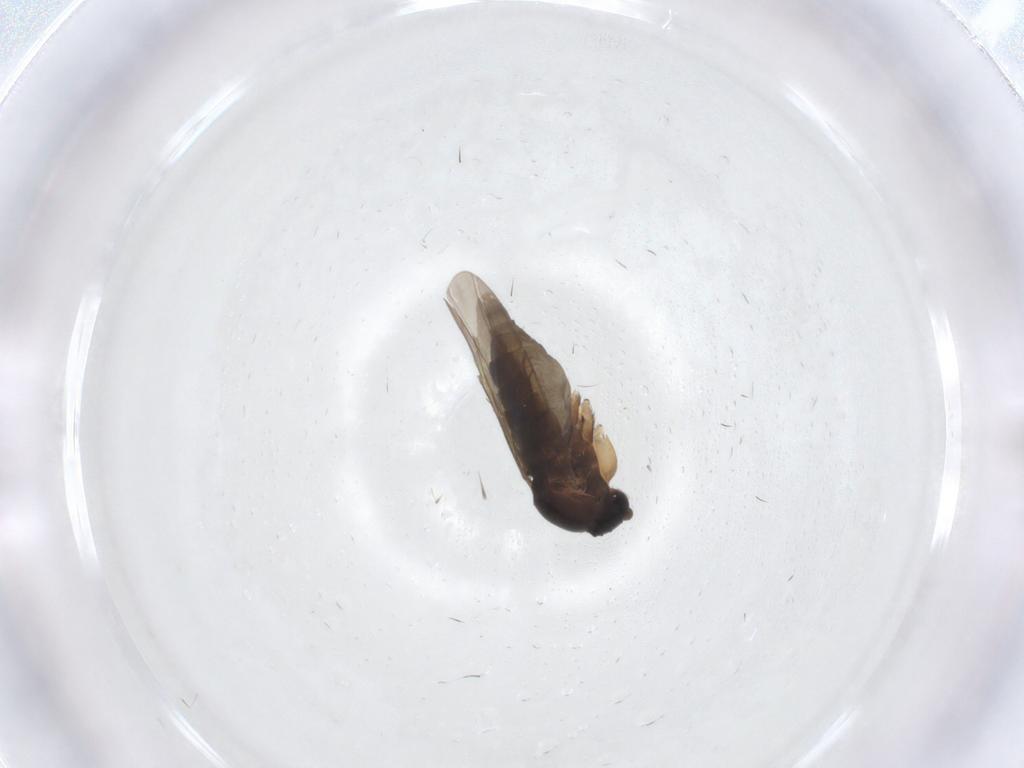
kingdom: Animalia
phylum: Arthropoda
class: Insecta
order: Diptera
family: Phoridae
